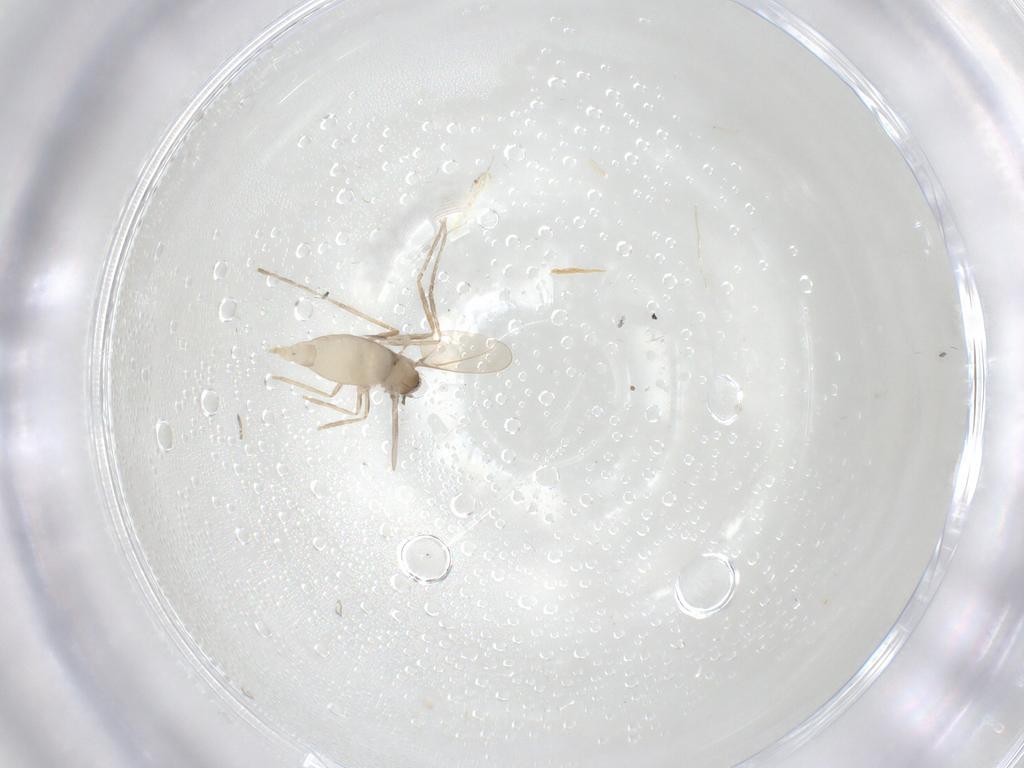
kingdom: Animalia
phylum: Arthropoda
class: Insecta
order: Diptera
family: Cecidomyiidae
